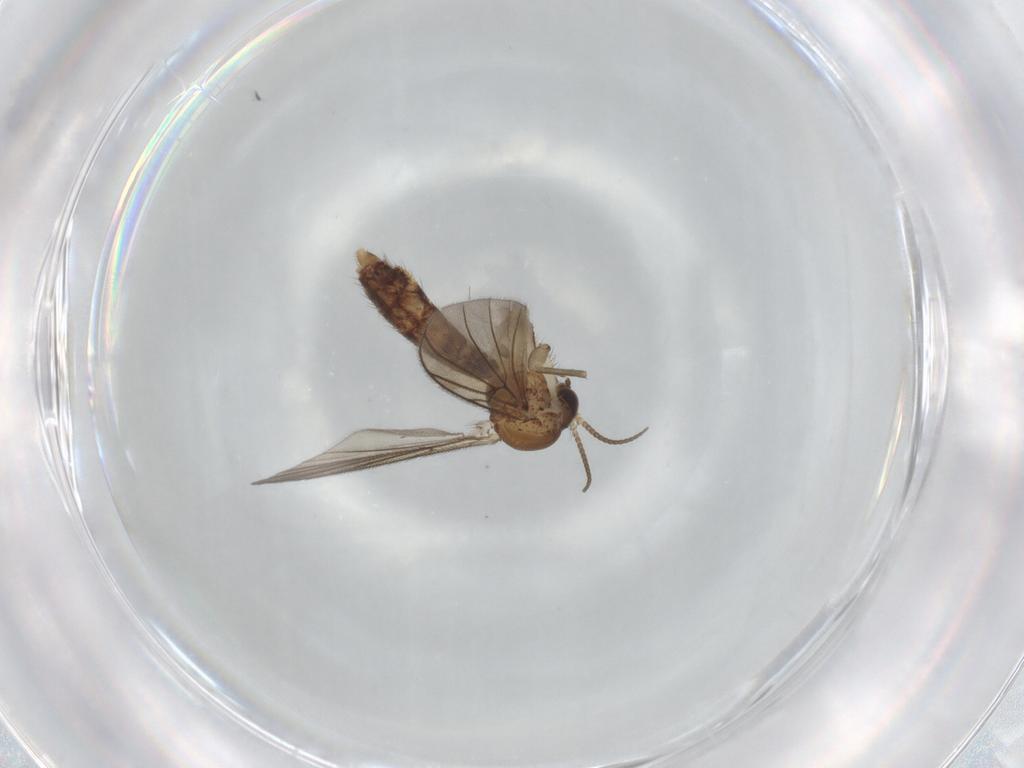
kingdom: Animalia
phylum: Arthropoda
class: Insecta
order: Diptera
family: Mycetophilidae
